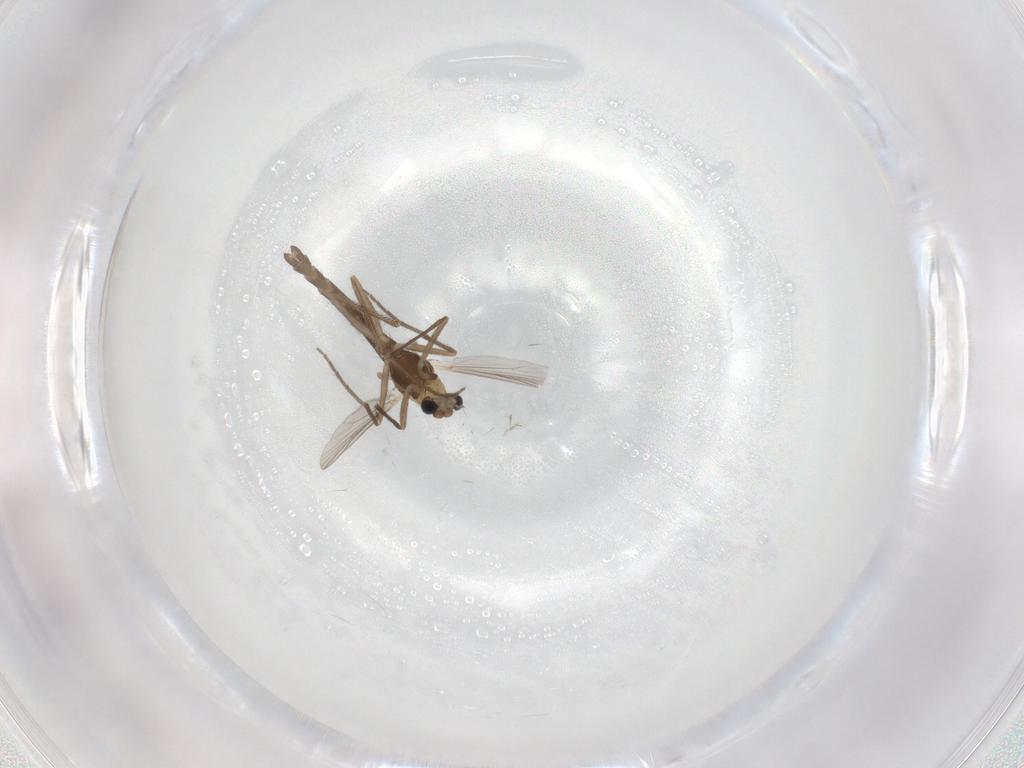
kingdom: Animalia
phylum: Arthropoda
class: Insecta
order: Diptera
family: Chironomidae
